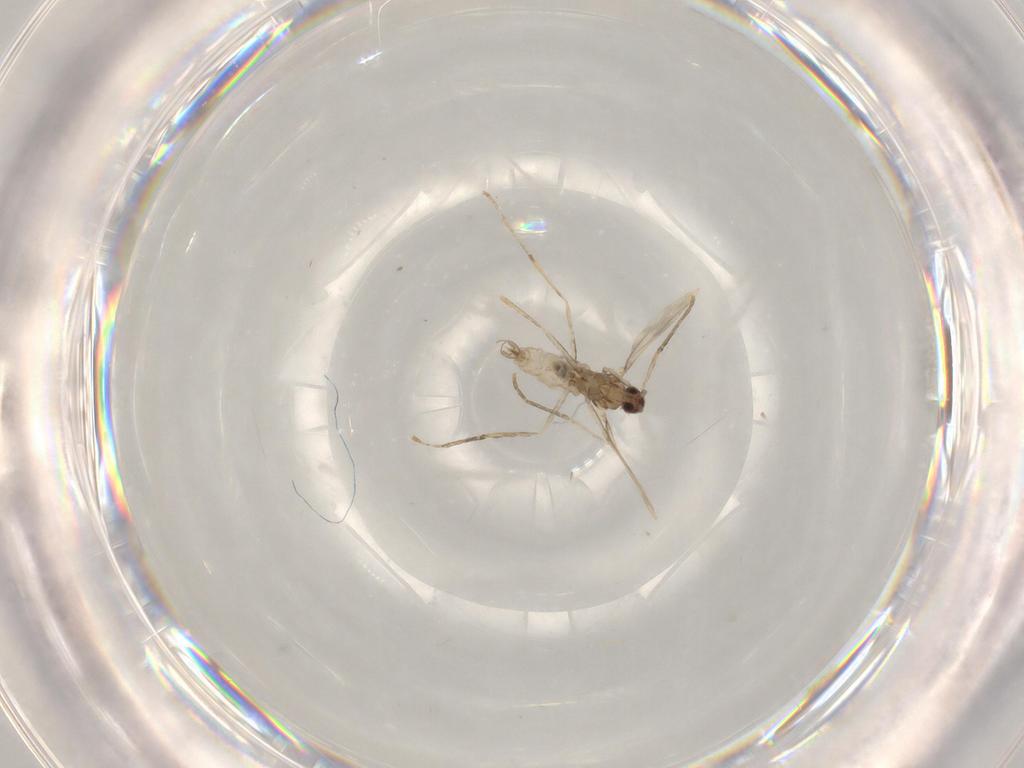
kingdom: Animalia
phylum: Arthropoda
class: Insecta
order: Diptera
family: Cecidomyiidae
